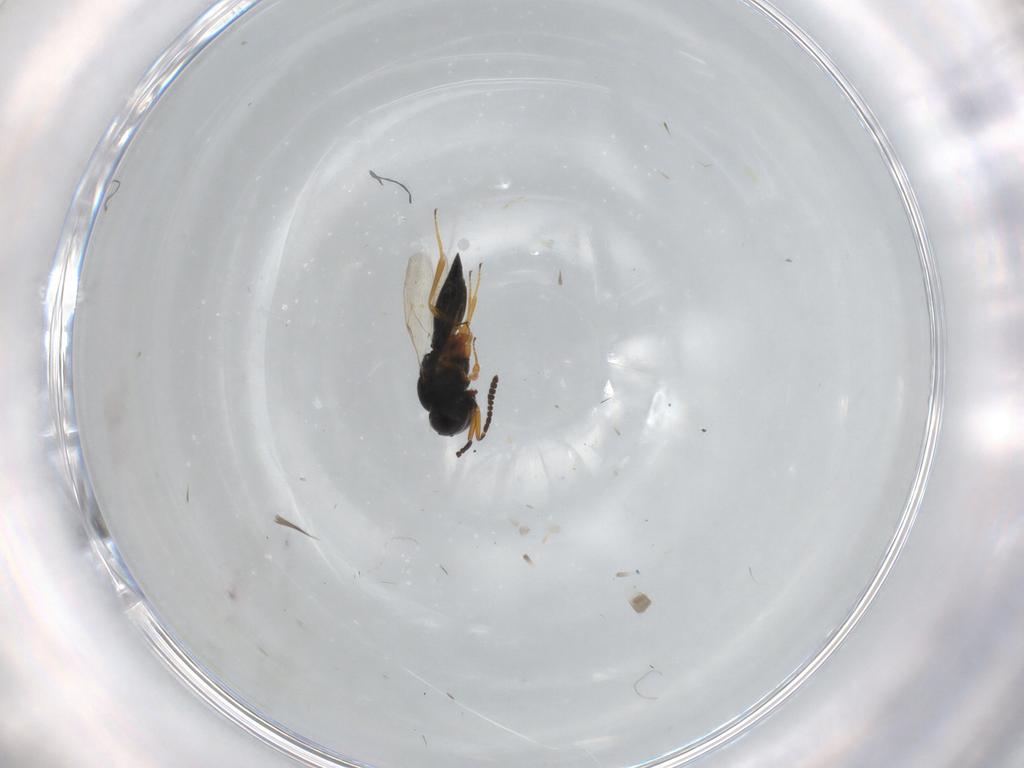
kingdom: Animalia
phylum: Arthropoda
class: Insecta
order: Hymenoptera
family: Scelionidae
